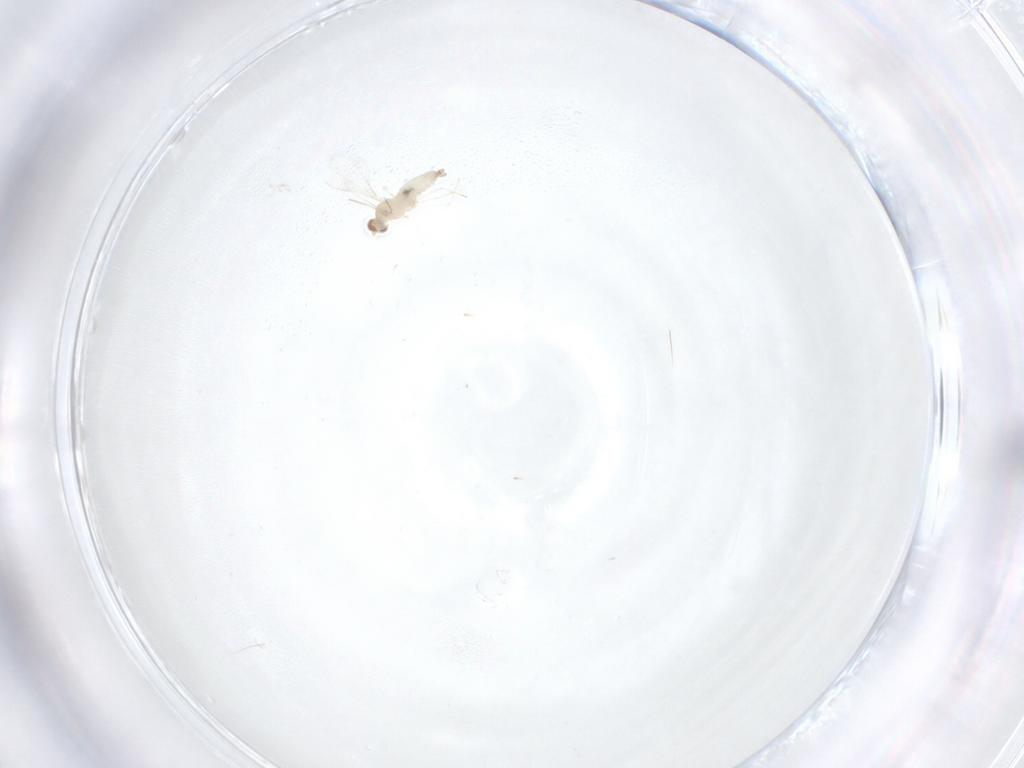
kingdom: Animalia
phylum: Arthropoda
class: Insecta
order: Diptera
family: Cecidomyiidae
